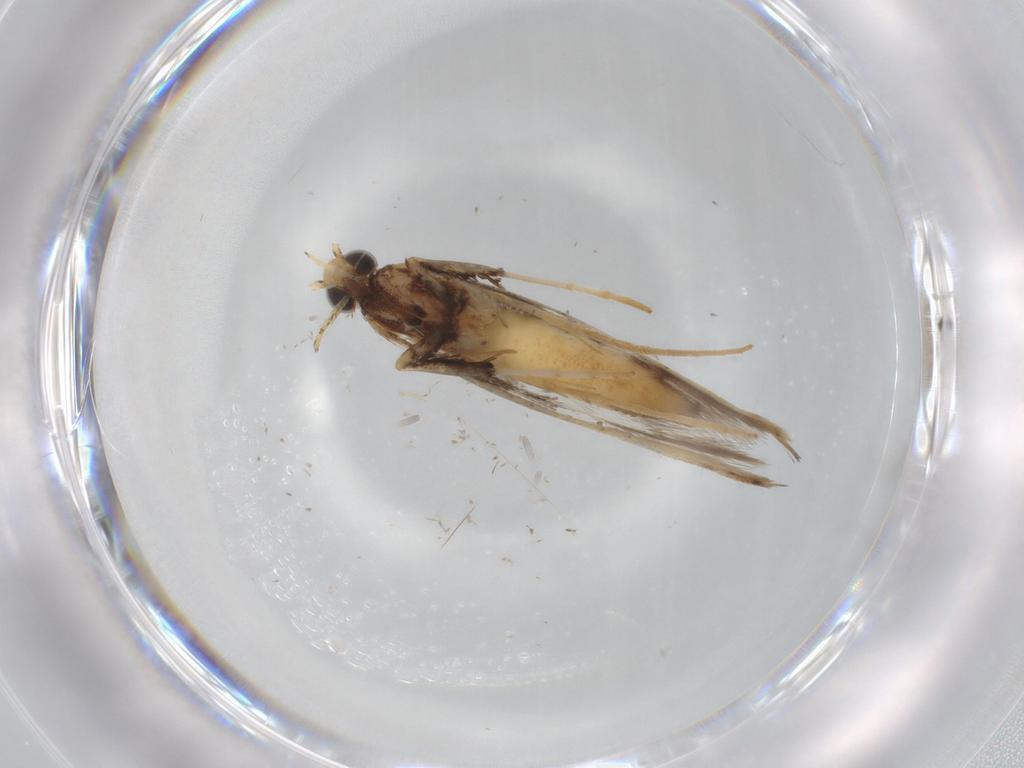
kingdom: Animalia
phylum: Arthropoda
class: Insecta
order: Lepidoptera
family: Gracillariidae
